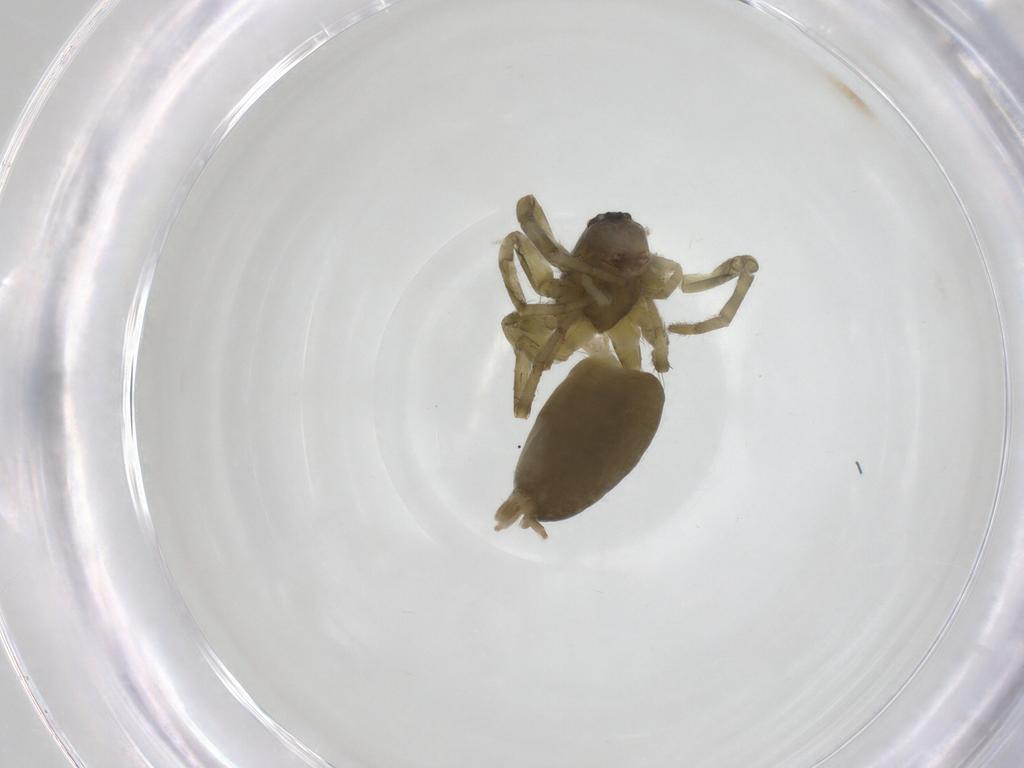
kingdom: Animalia
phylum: Arthropoda
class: Arachnida
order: Araneae
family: Anyphaenidae
